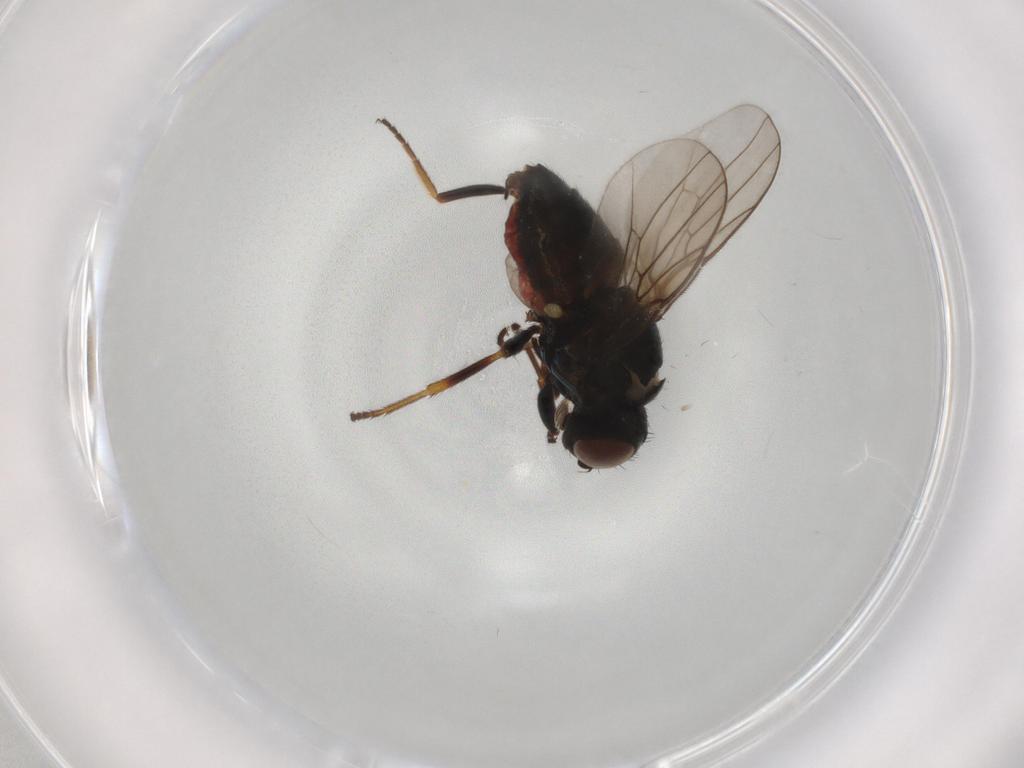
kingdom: Animalia
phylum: Arthropoda
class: Insecta
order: Diptera
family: Chloropidae
